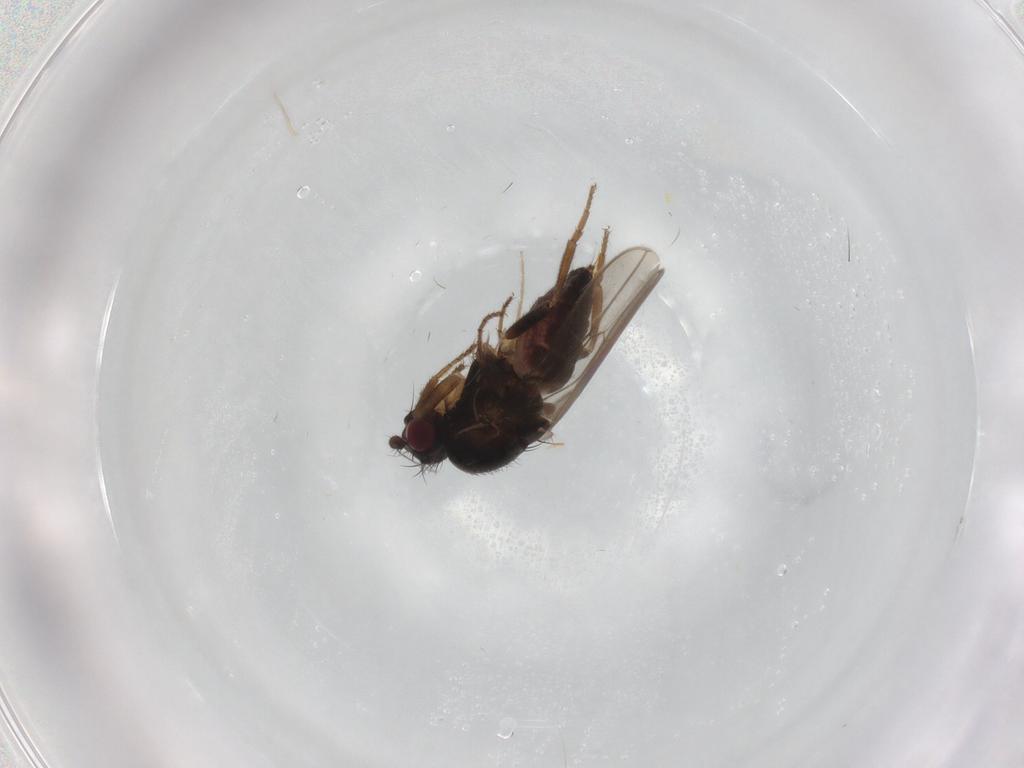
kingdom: Animalia
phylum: Arthropoda
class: Insecta
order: Diptera
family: Sphaeroceridae
